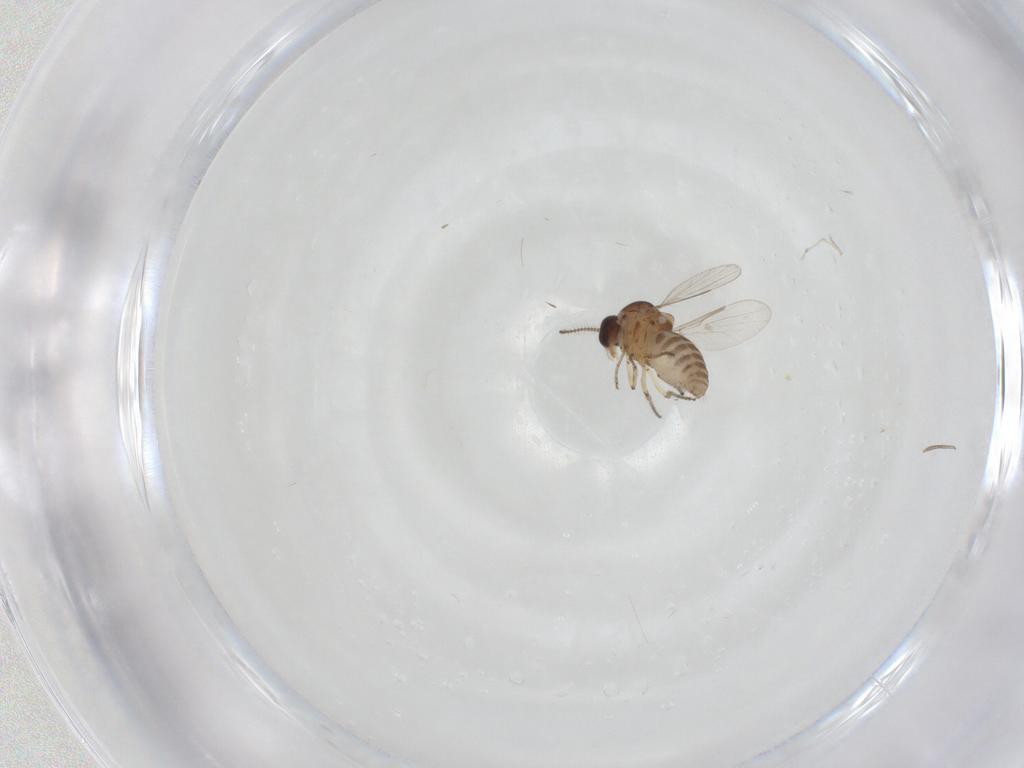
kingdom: Animalia
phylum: Arthropoda
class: Insecta
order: Diptera
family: Ceratopogonidae
